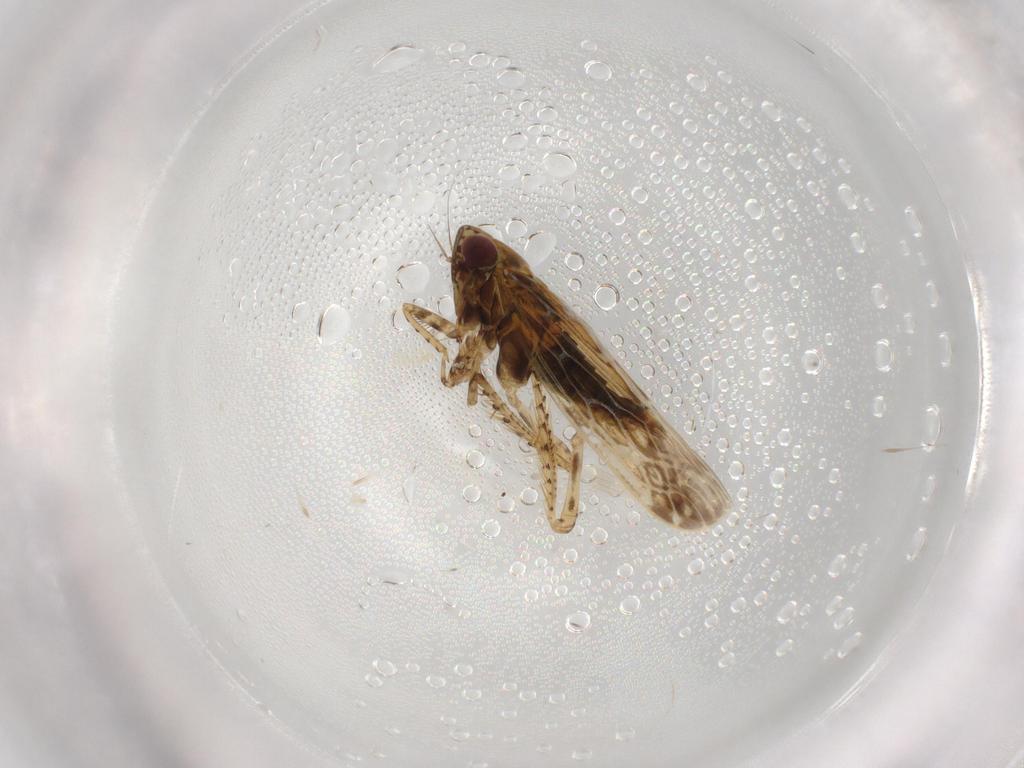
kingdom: Animalia
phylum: Arthropoda
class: Insecta
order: Hemiptera
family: Cicadellidae
